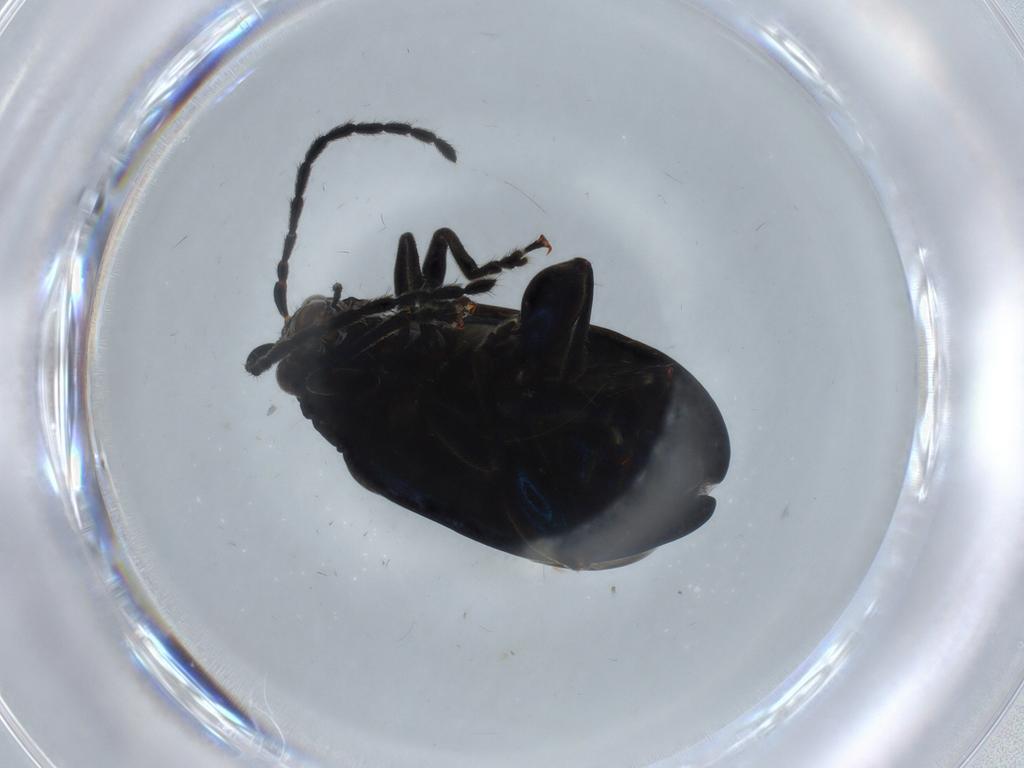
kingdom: Animalia
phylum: Arthropoda
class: Insecta
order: Coleoptera
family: Chrysomelidae
